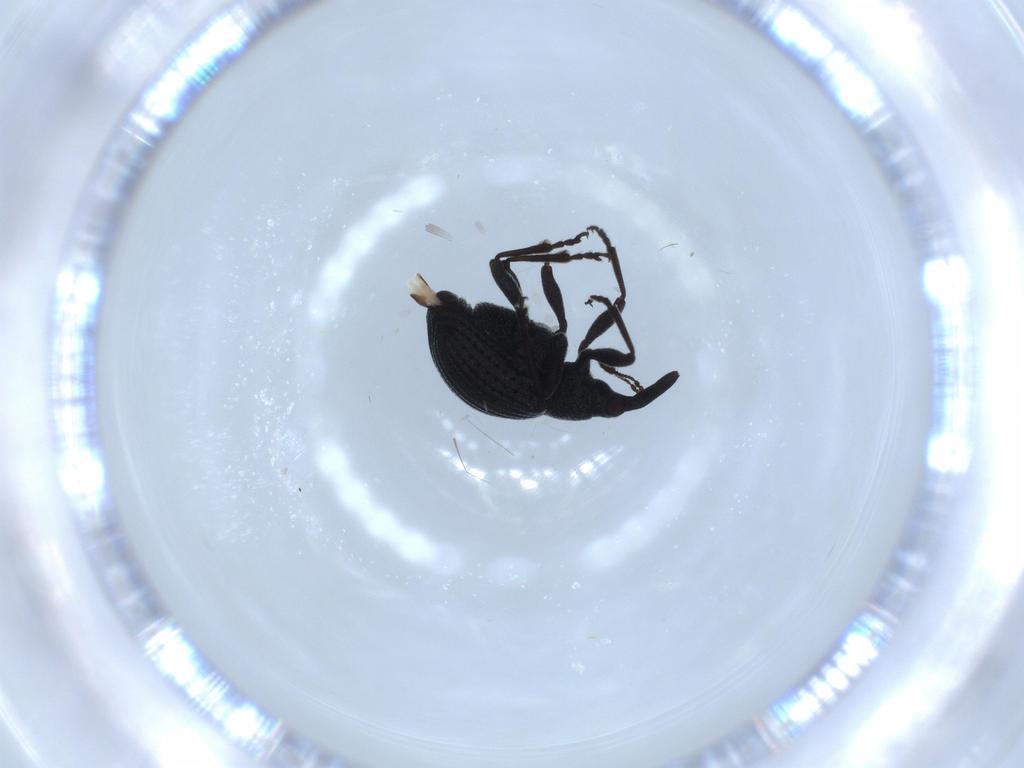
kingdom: Animalia
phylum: Arthropoda
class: Insecta
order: Coleoptera
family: Brentidae
